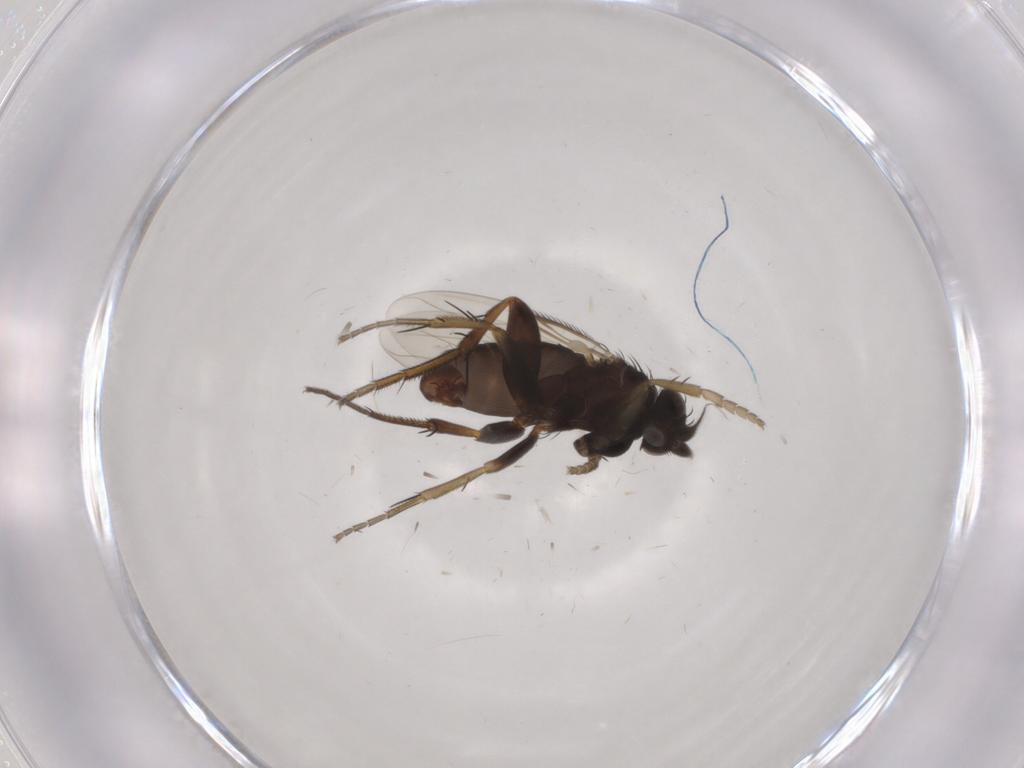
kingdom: Animalia
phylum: Arthropoda
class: Insecta
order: Diptera
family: Phoridae
